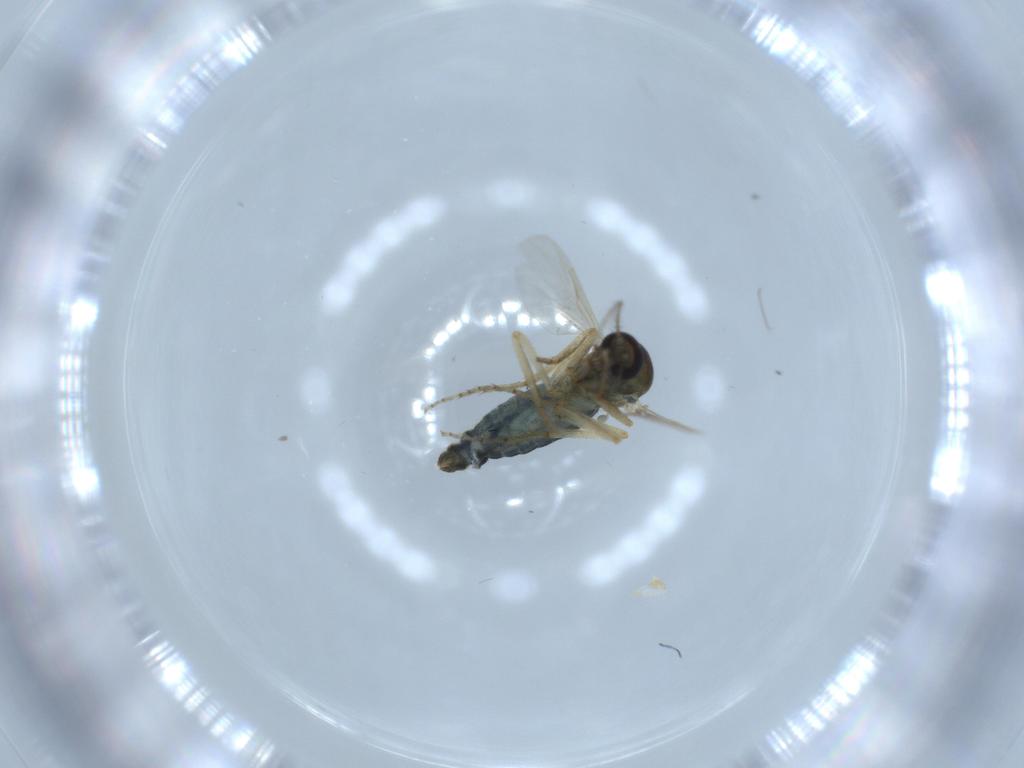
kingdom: Animalia
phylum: Arthropoda
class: Insecta
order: Diptera
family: Ceratopogonidae
